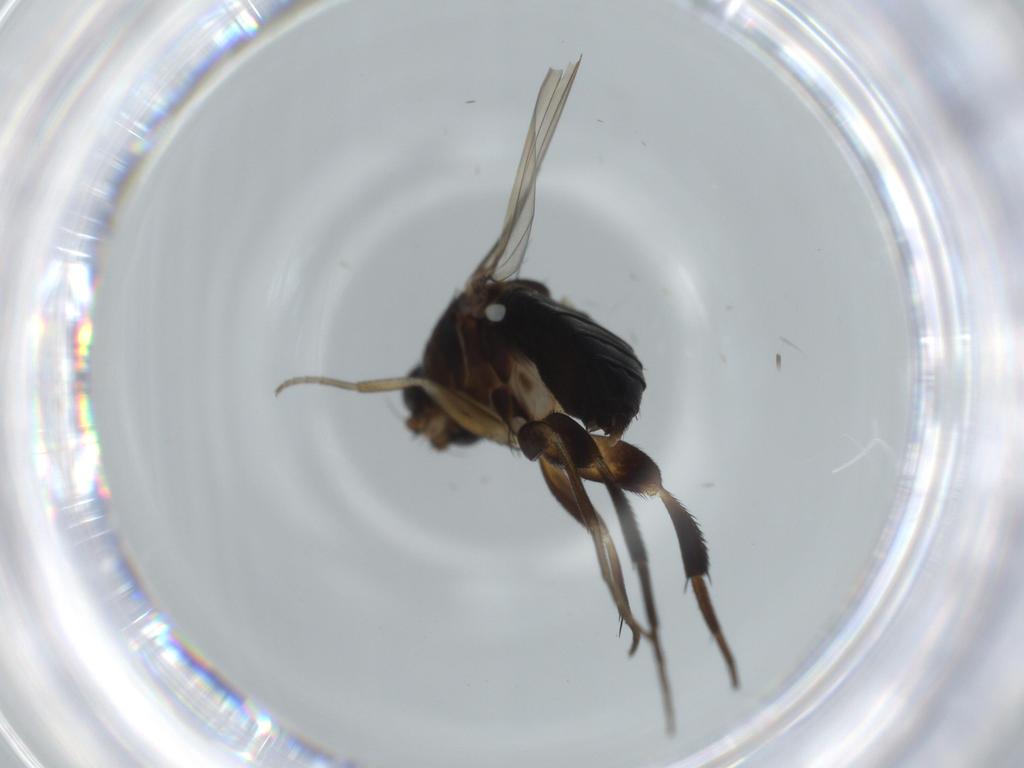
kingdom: Animalia
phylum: Arthropoda
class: Insecta
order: Diptera
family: Phoridae
